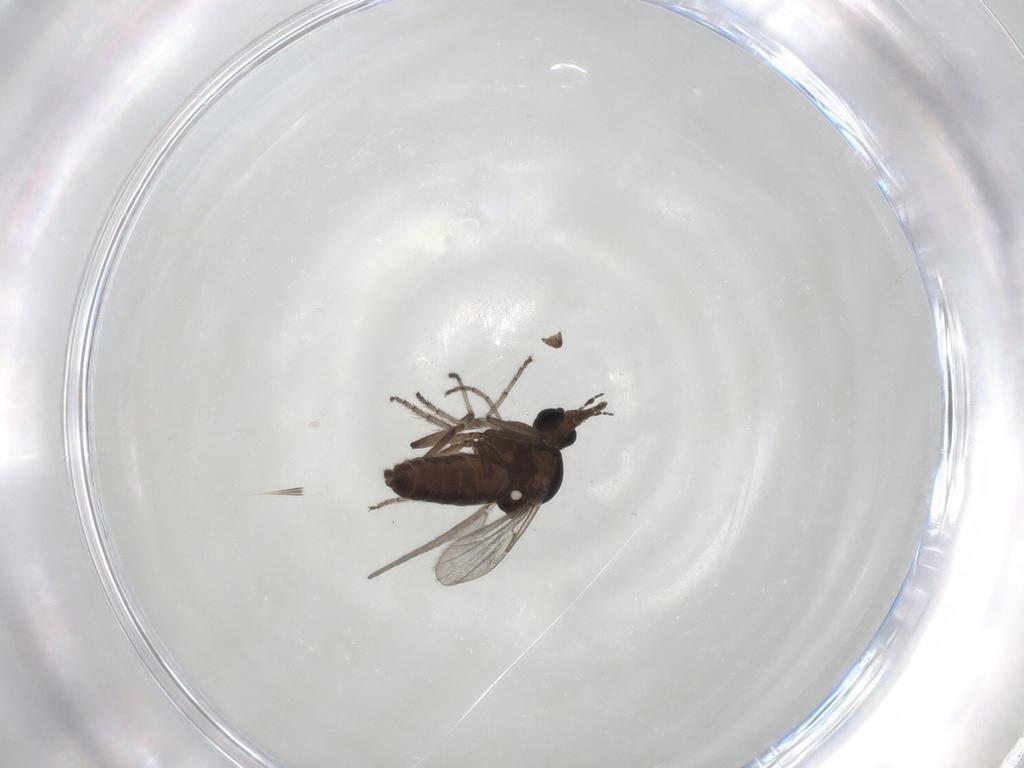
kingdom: Animalia
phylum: Arthropoda
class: Insecta
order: Diptera
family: Ceratopogonidae
